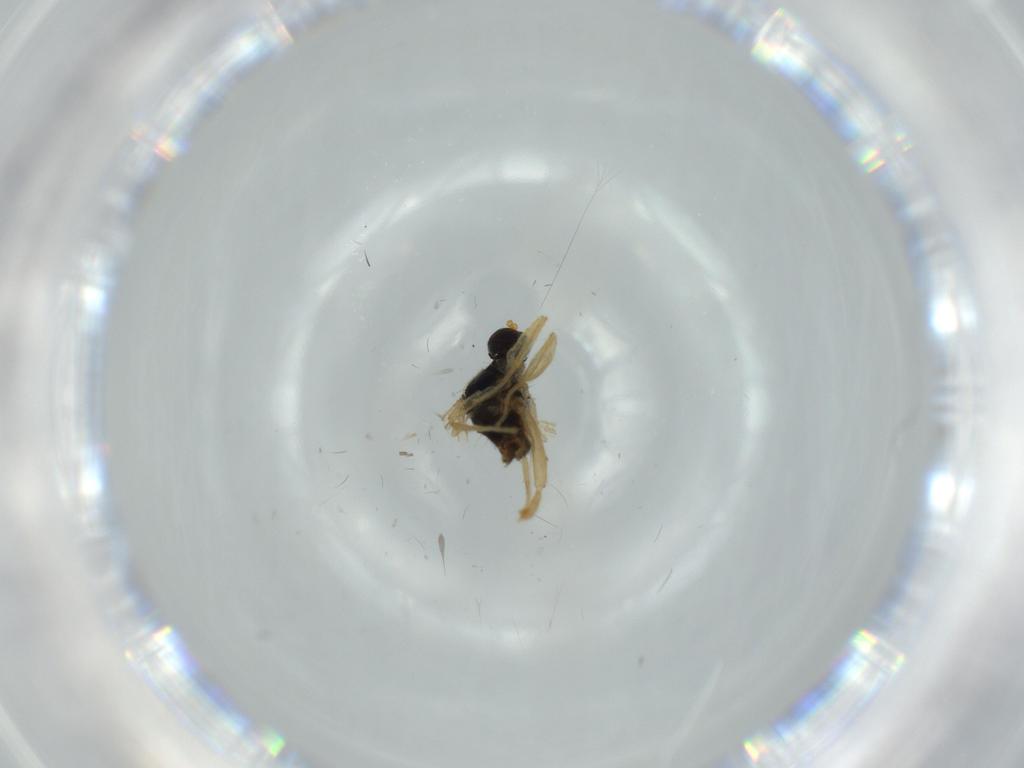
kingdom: Animalia
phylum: Arthropoda
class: Insecta
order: Diptera
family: Hybotidae
